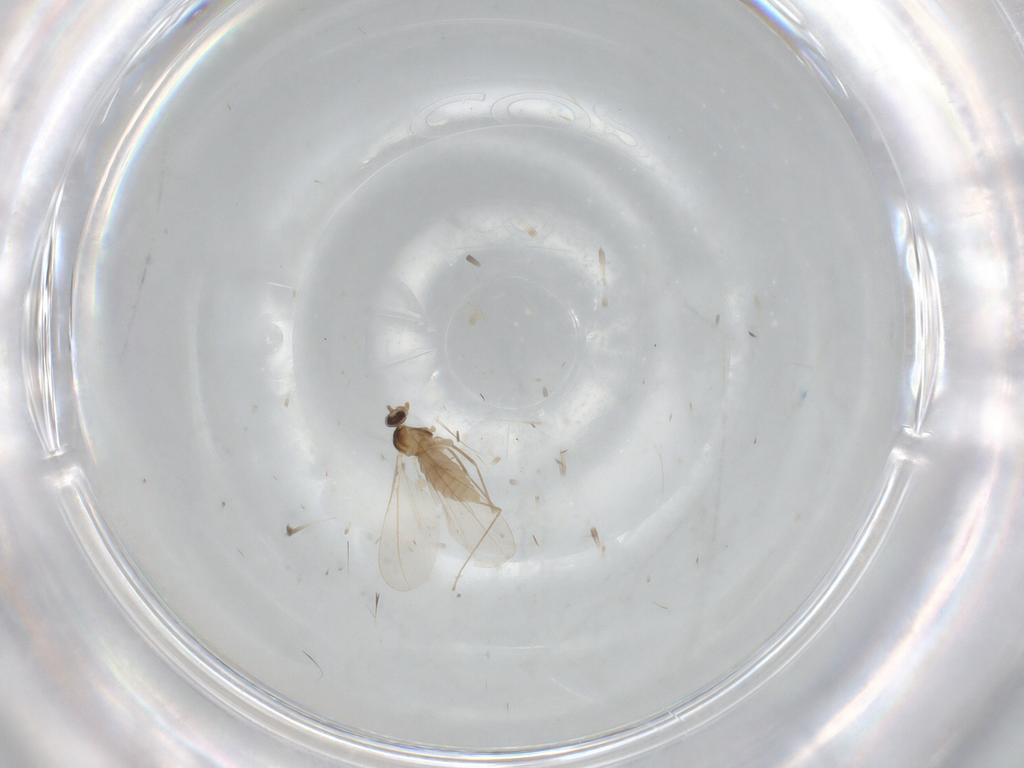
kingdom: Animalia
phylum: Arthropoda
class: Insecta
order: Diptera
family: Cecidomyiidae
